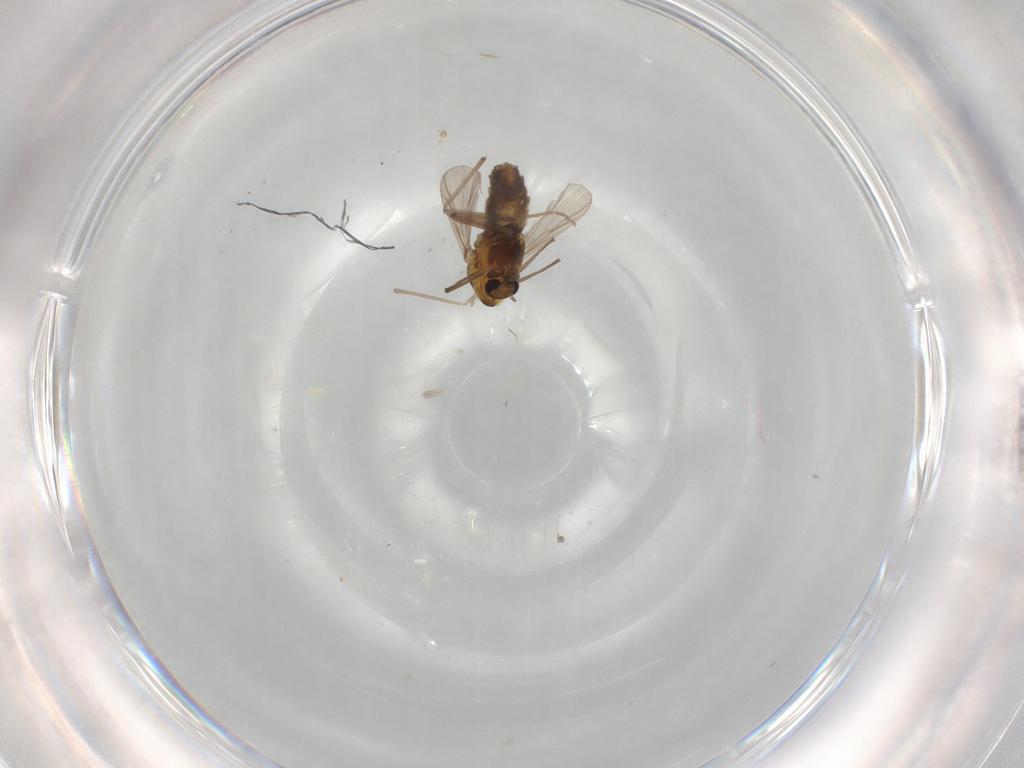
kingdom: Animalia
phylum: Arthropoda
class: Insecta
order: Diptera
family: Chironomidae
